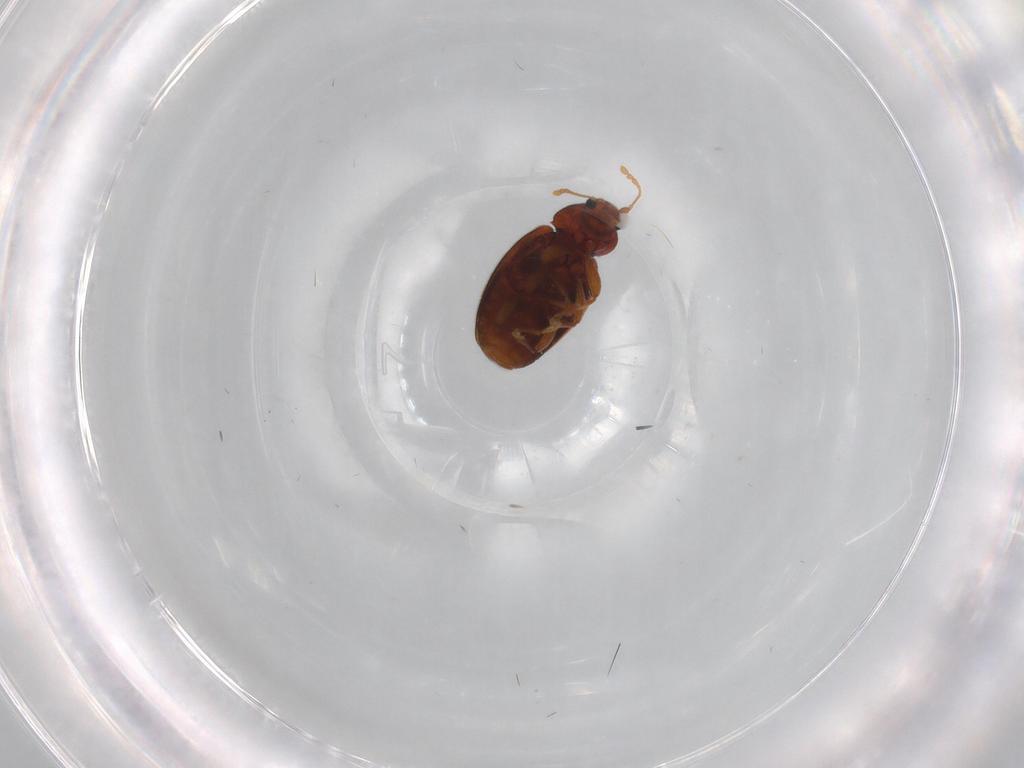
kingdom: Animalia
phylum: Arthropoda
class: Insecta
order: Coleoptera
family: Latridiidae
